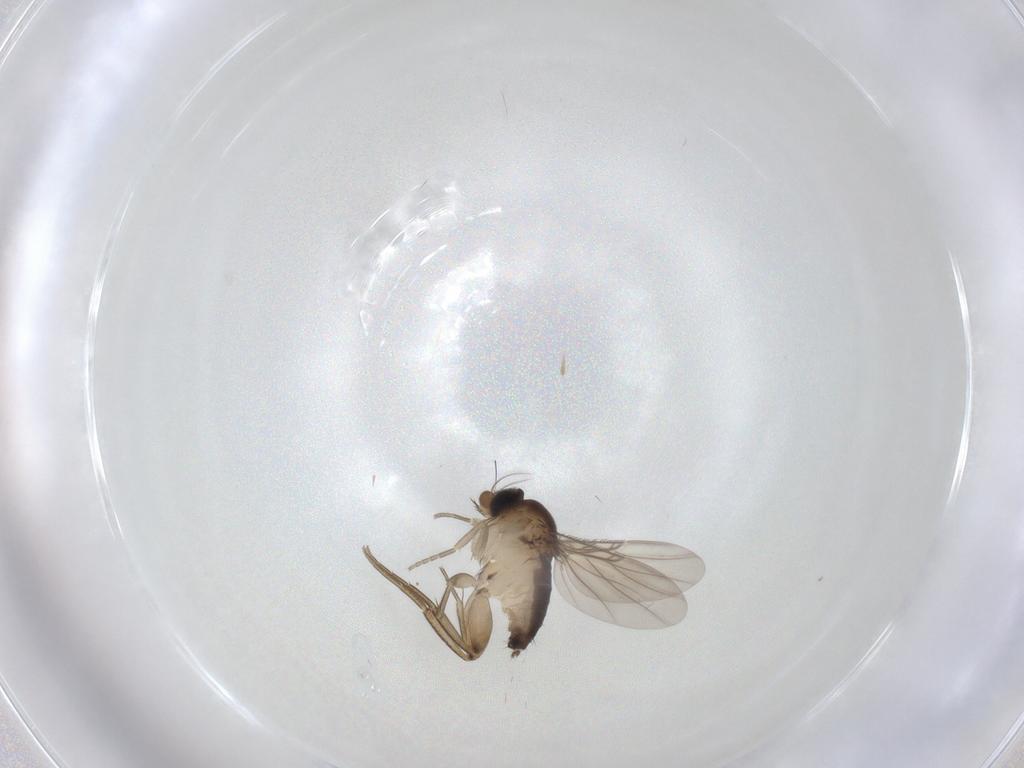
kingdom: Animalia
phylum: Arthropoda
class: Insecta
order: Diptera
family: Phoridae
